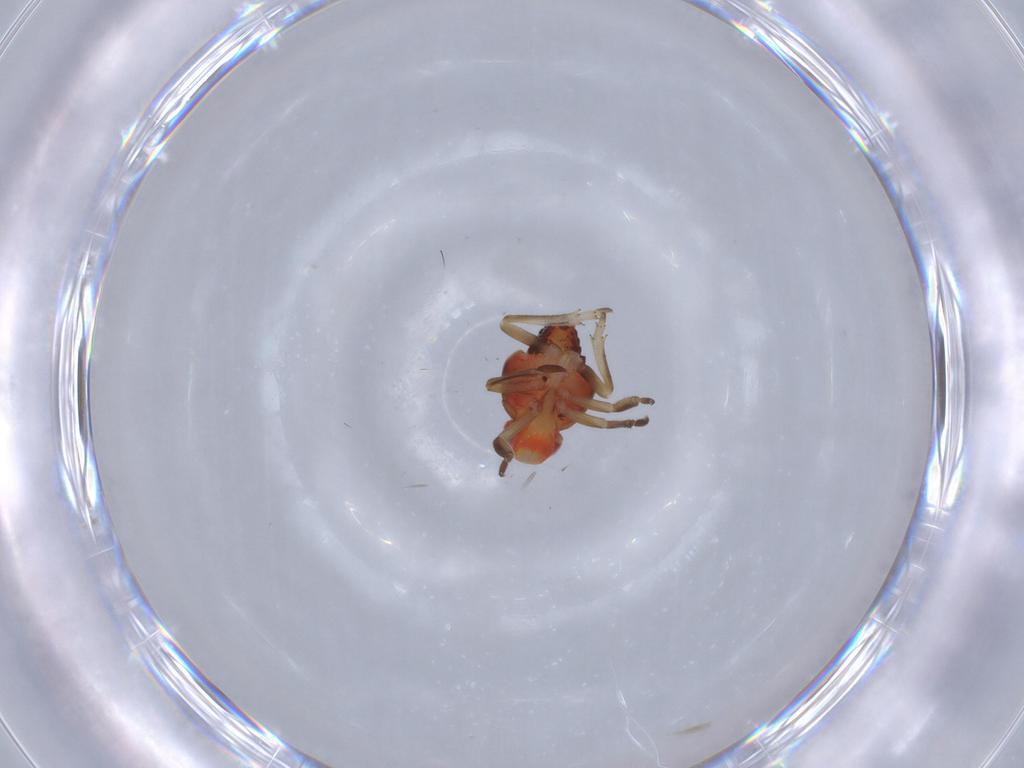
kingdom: Animalia
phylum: Arthropoda
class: Insecta
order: Hemiptera
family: Fulgoroidea_incertae_sedis
